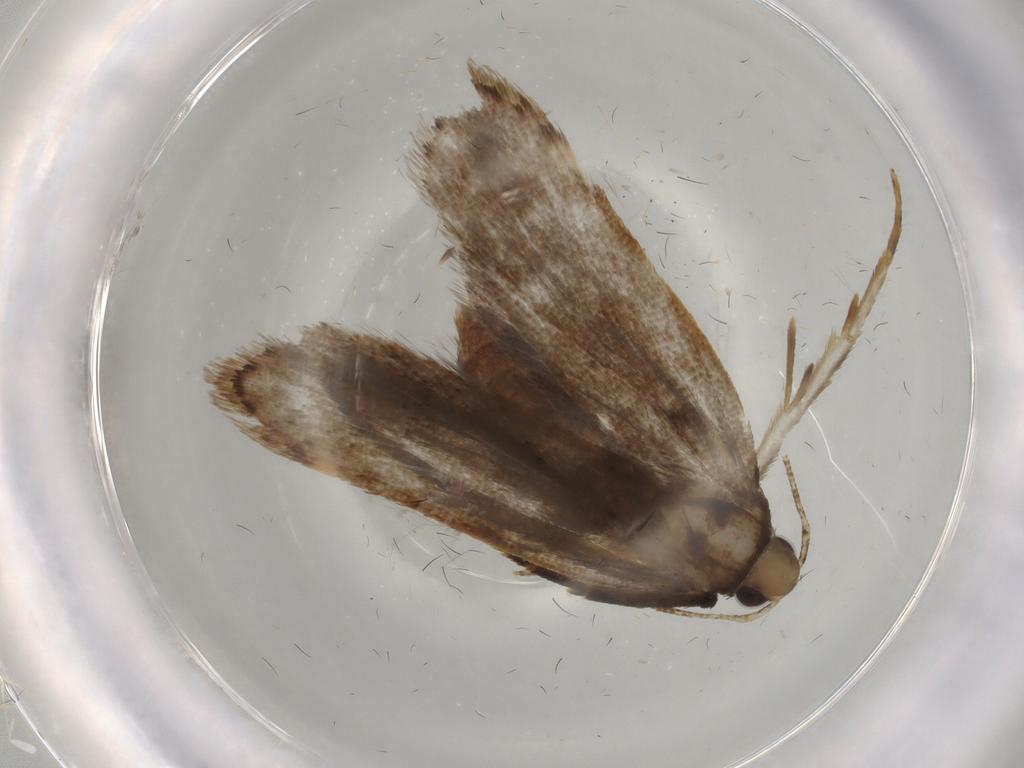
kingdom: Animalia
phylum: Arthropoda
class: Insecta
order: Lepidoptera
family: Gelechiidae
